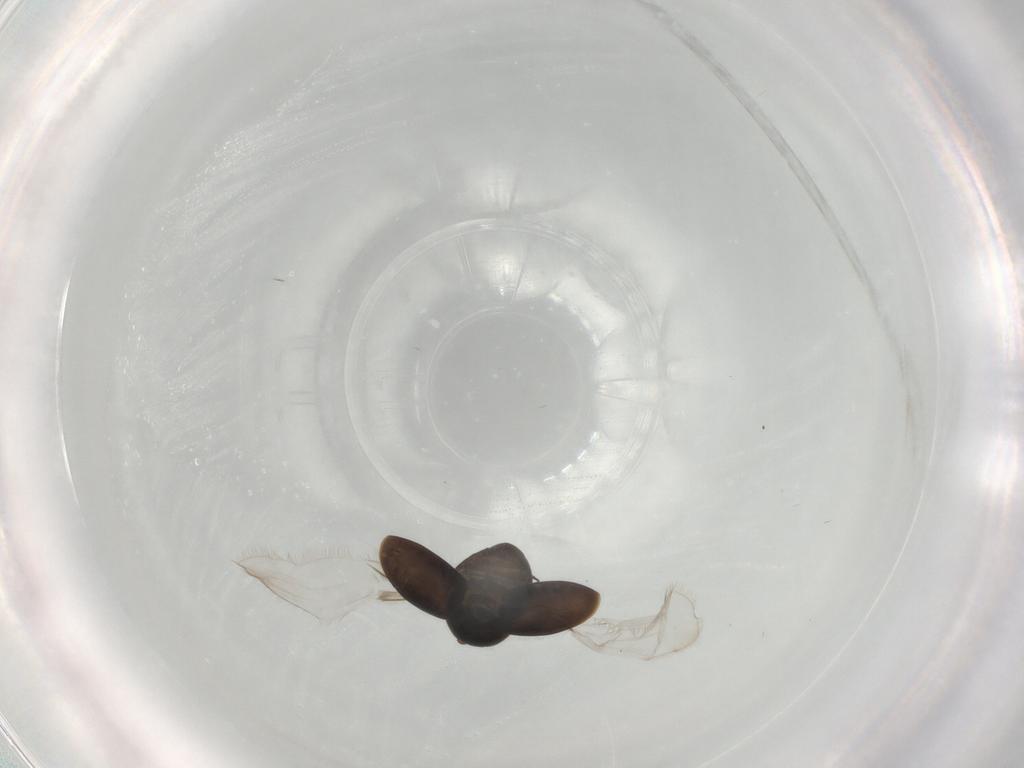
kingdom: Animalia
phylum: Arthropoda
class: Insecta
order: Coleoptera
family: Corylophidae
